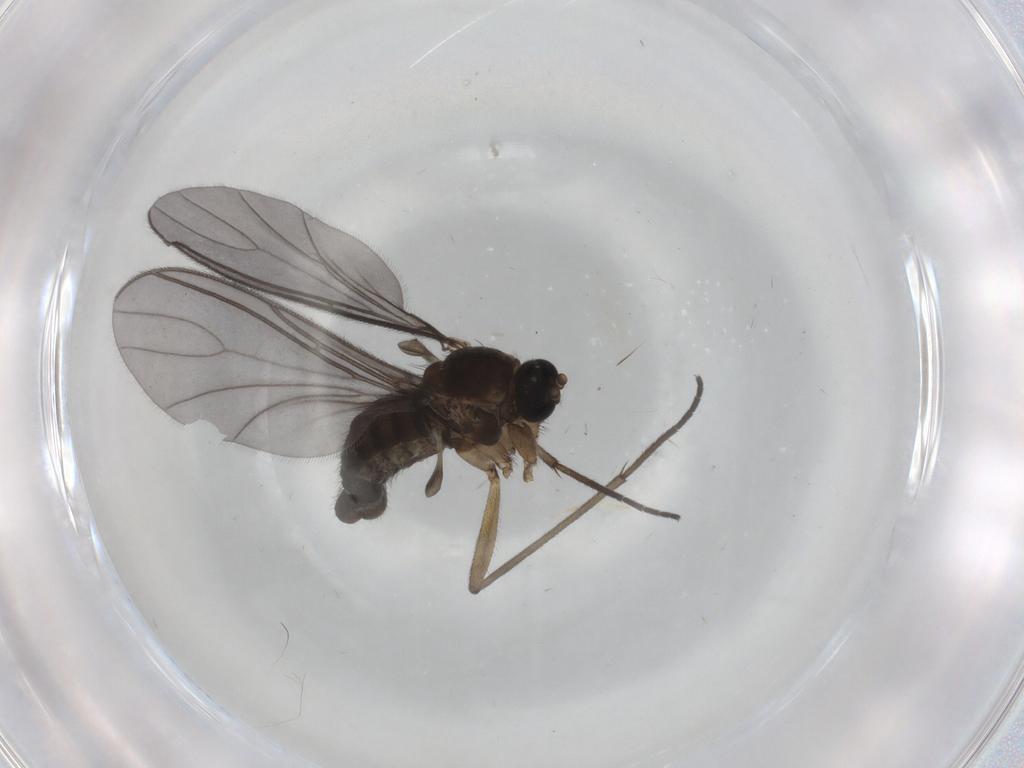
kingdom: Animalia
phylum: Arthropoda
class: Insecta
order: Diptera
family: Sciaridae
